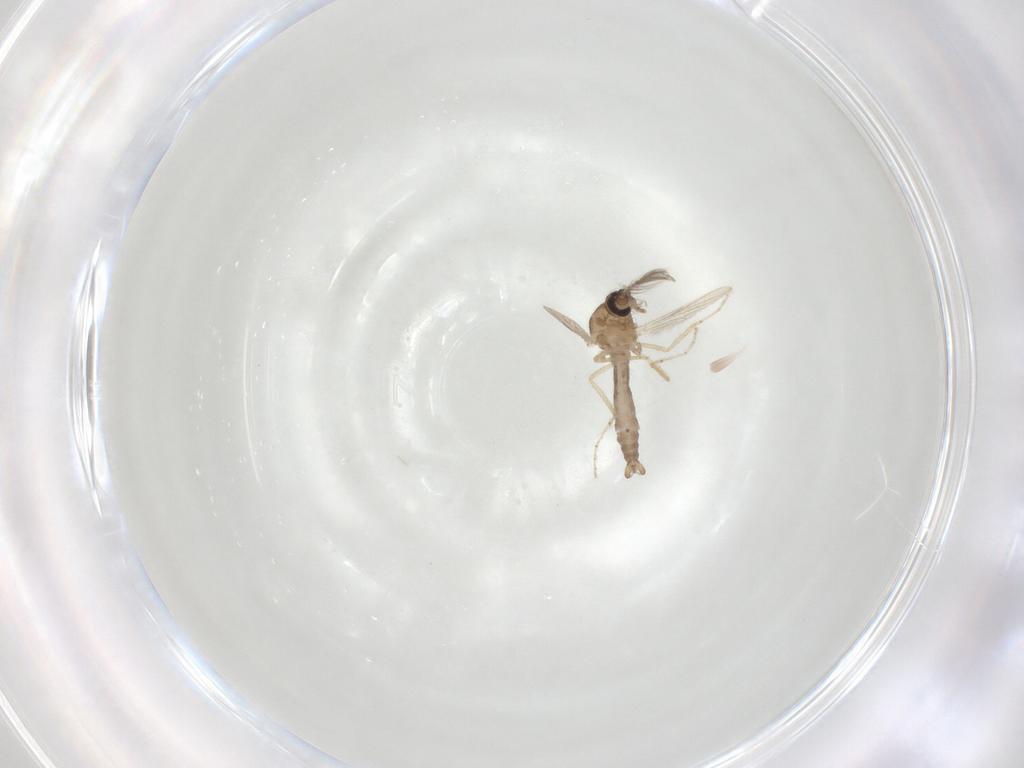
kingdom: Animalia
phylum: Arthropoda
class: Insecta
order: Diptera
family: Ceratopogonidae
